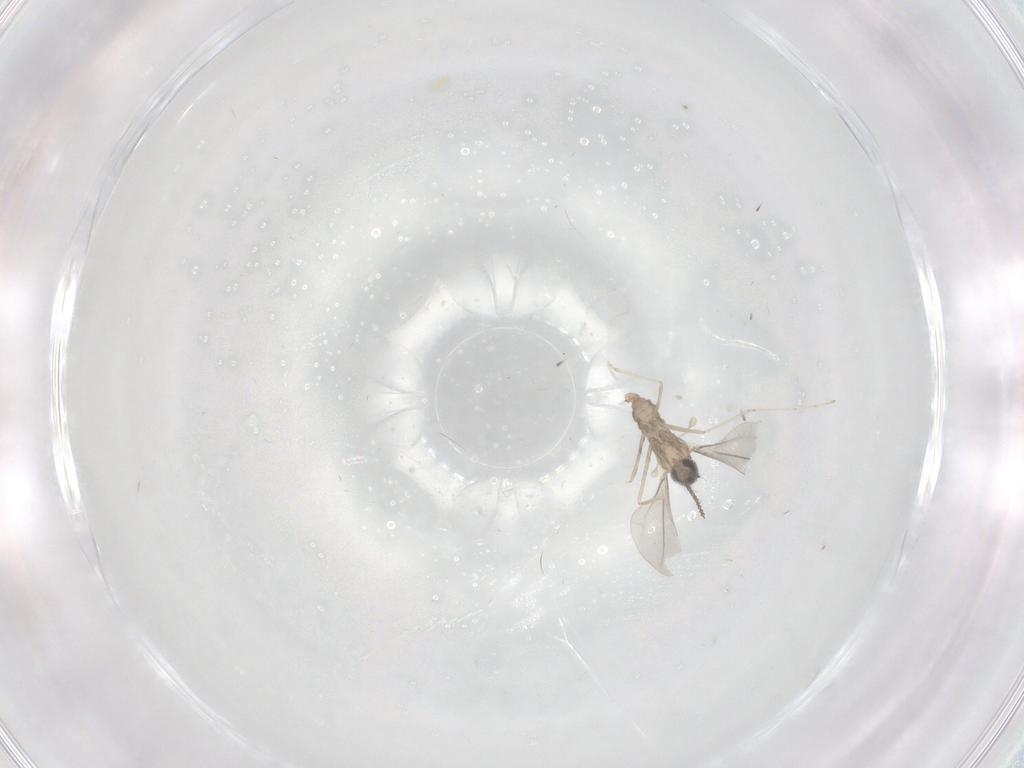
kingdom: Animalia
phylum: Arthropoda
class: Insecta
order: Diptera
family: Cecidomyiidae
